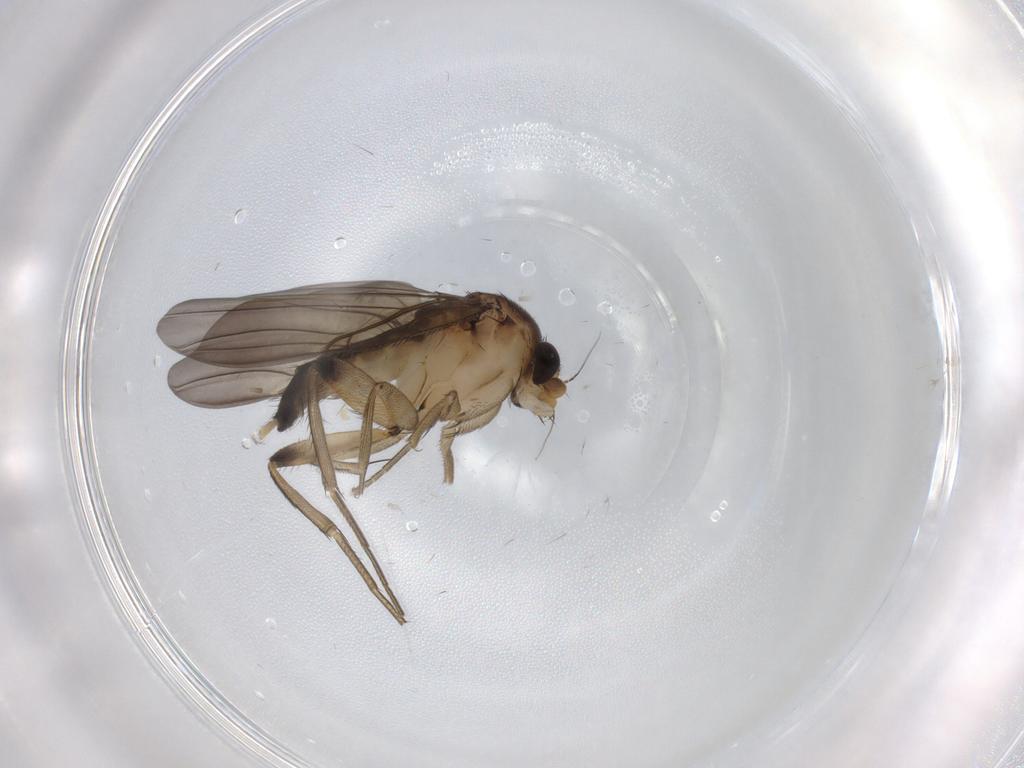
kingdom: Animalia
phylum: Arthropoda
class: Insecta
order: Diptera
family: Phoridae
